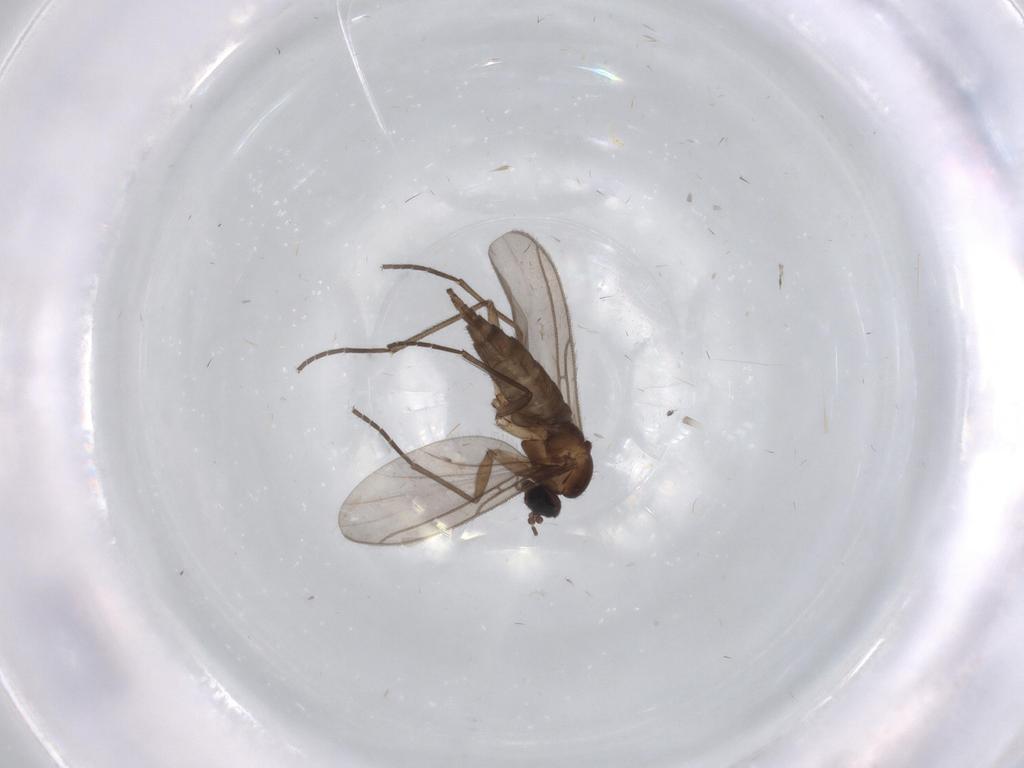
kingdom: Animalia
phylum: Arthropoda
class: Insecta
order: Diptera
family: Sciaridae
